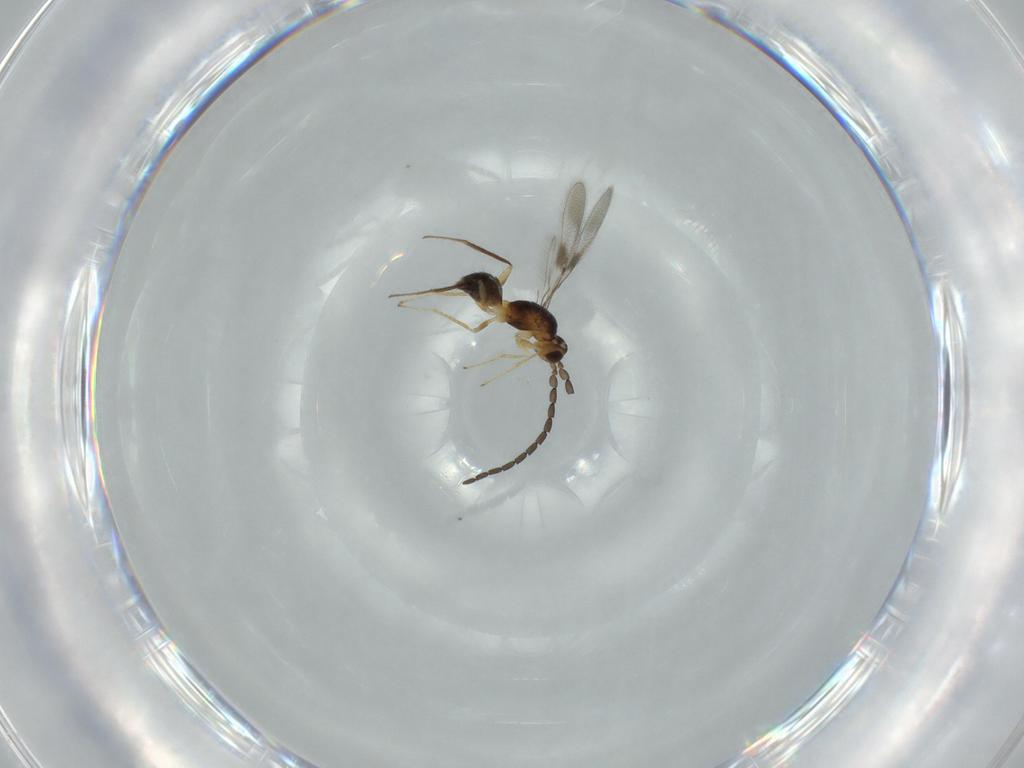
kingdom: Animalia
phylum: Arthropoda
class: Insecta
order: Hymenoptera
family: Mymaridae
